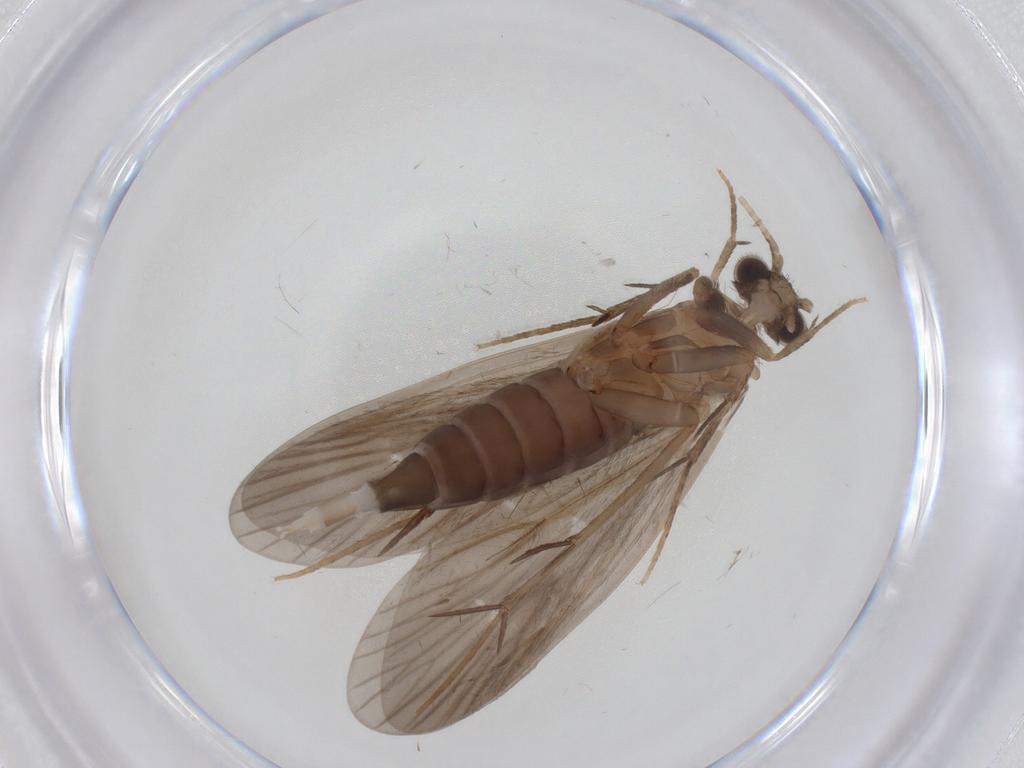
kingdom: Animalia
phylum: Arthropoda
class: Insecta
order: Trichoptera
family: Philopotamidae
